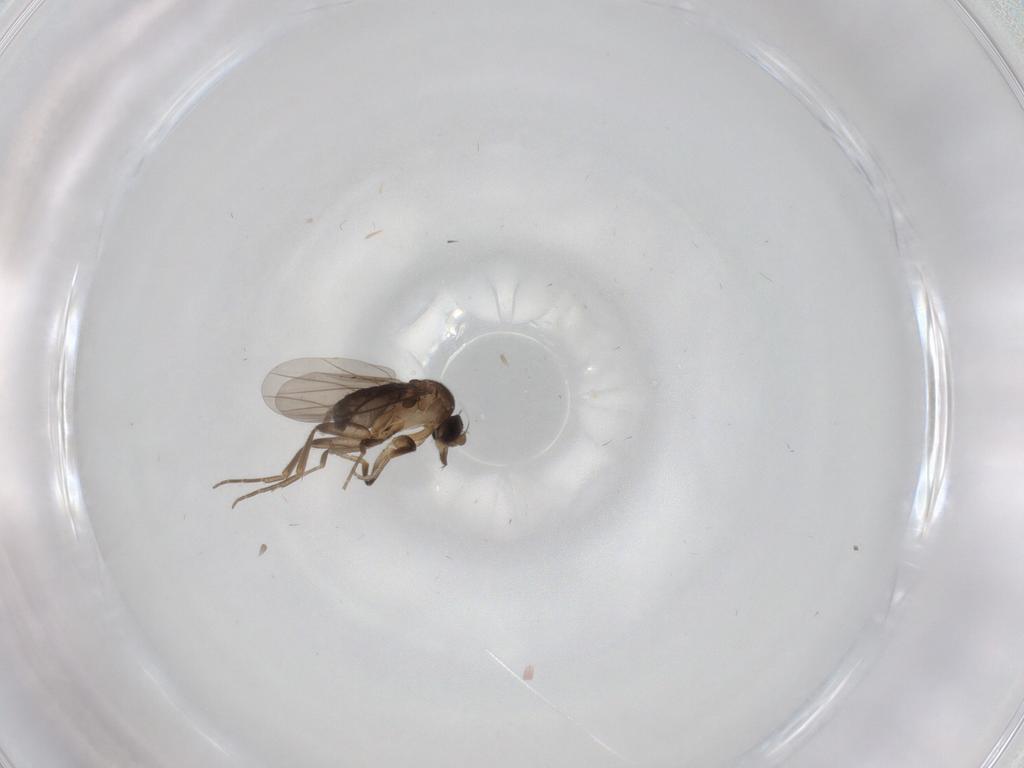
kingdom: Animalia
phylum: Arthropoda
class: Insecta
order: Diptera
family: Phoridae
